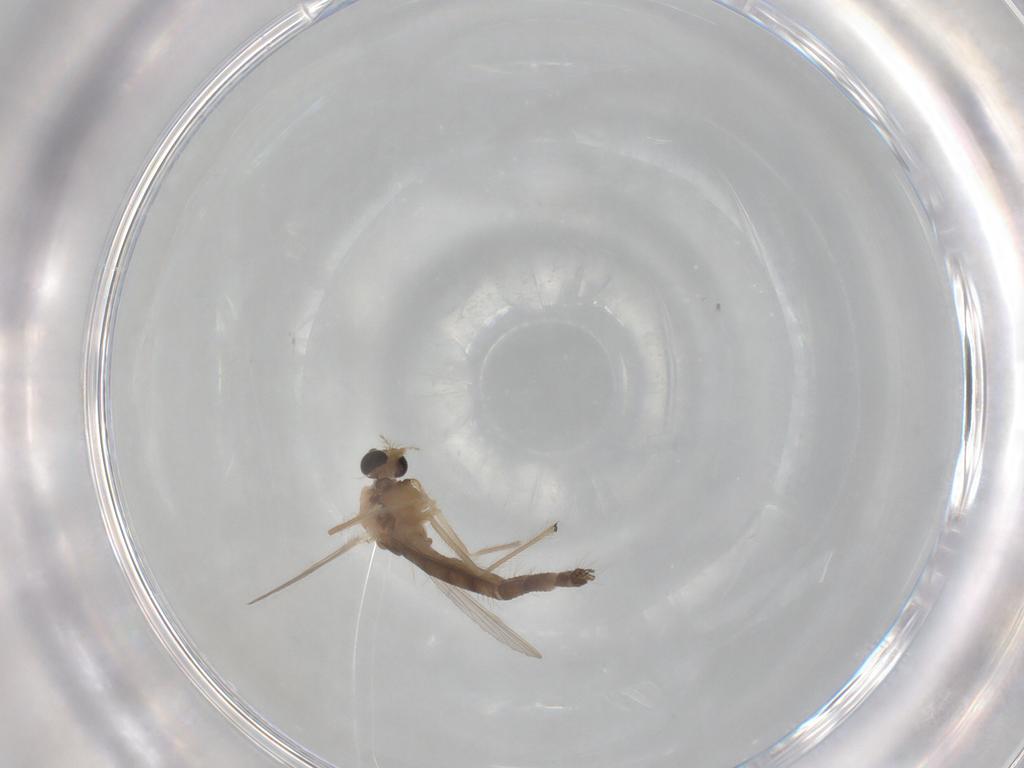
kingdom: Animalia
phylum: Arthropoda
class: Insecta
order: Diptera
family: Chironomidae
